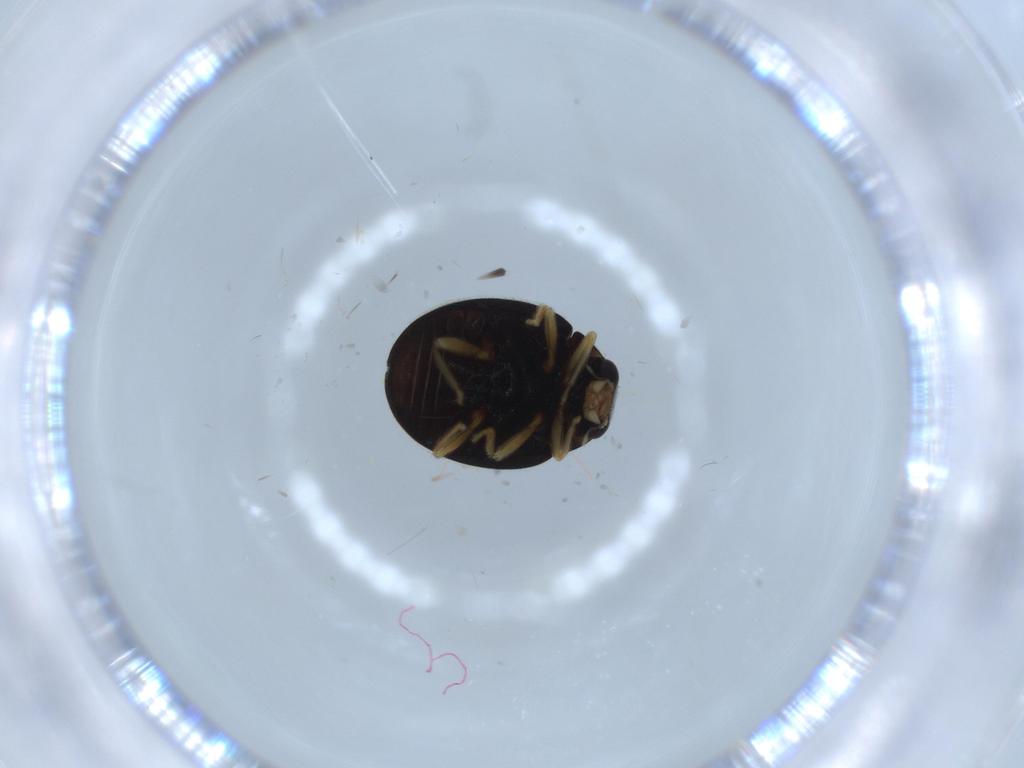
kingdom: Animalia
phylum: Arthropoda
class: Insecta
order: Coleoptera
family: Coccinellidae
